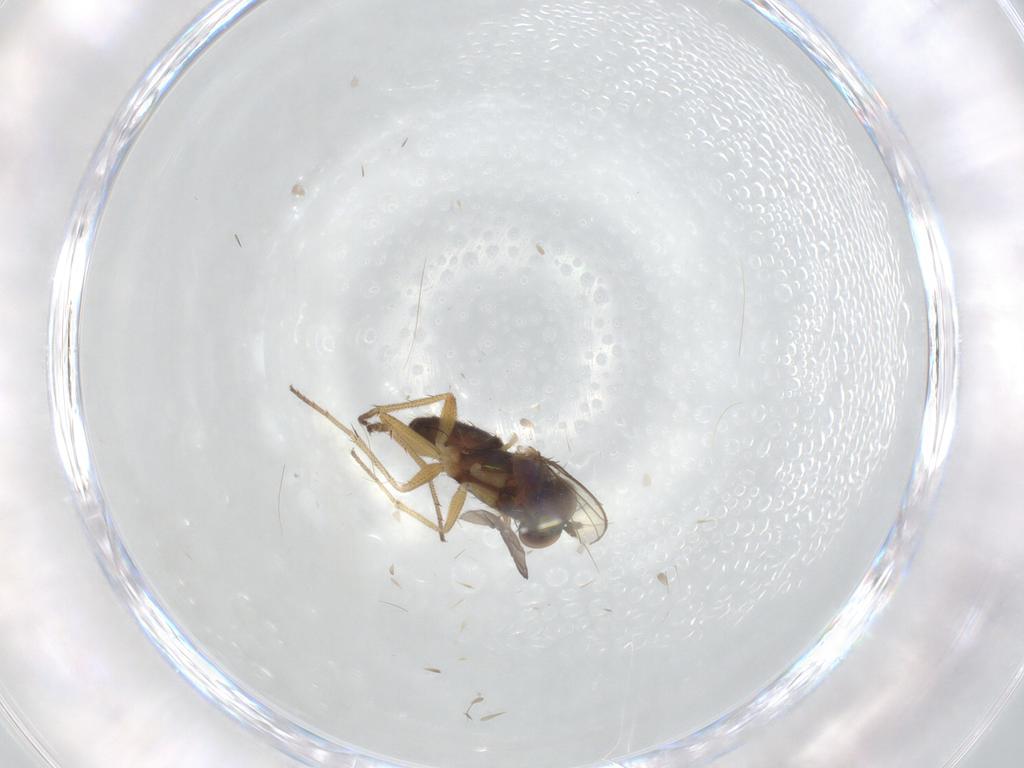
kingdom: Animalia
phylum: Arthropoda
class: Insecta
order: Diptera
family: Dolichopodidae
